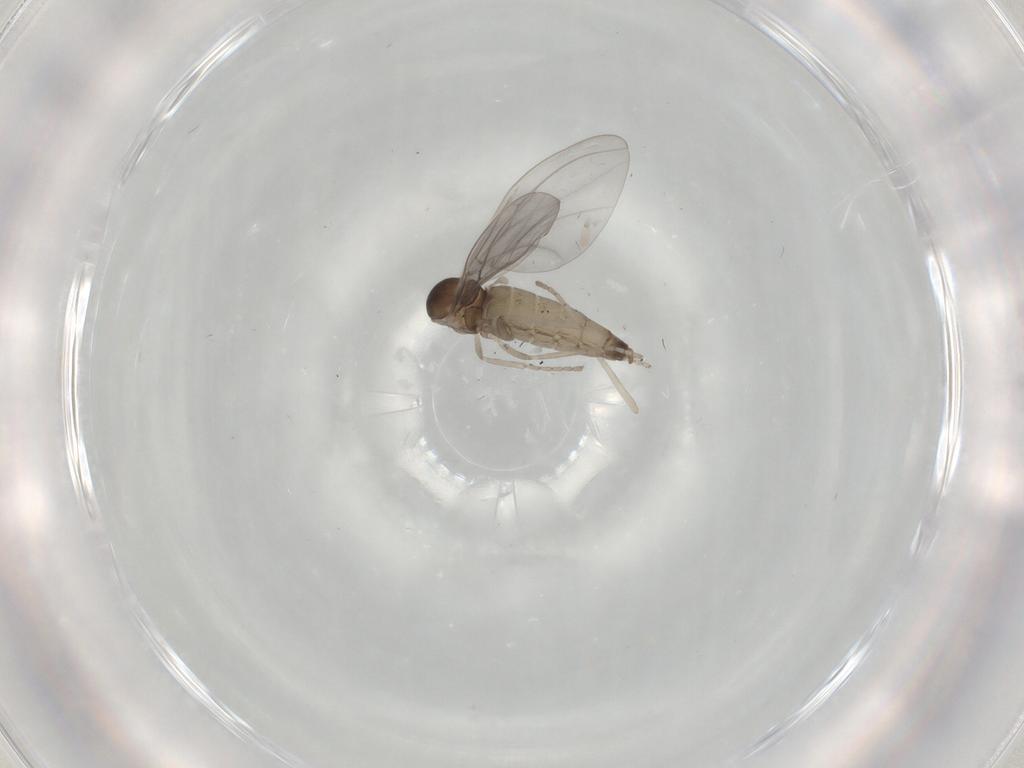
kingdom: Animalia
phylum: Arthropoda
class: Insecta
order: Diptera
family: Cecidomyiidae
